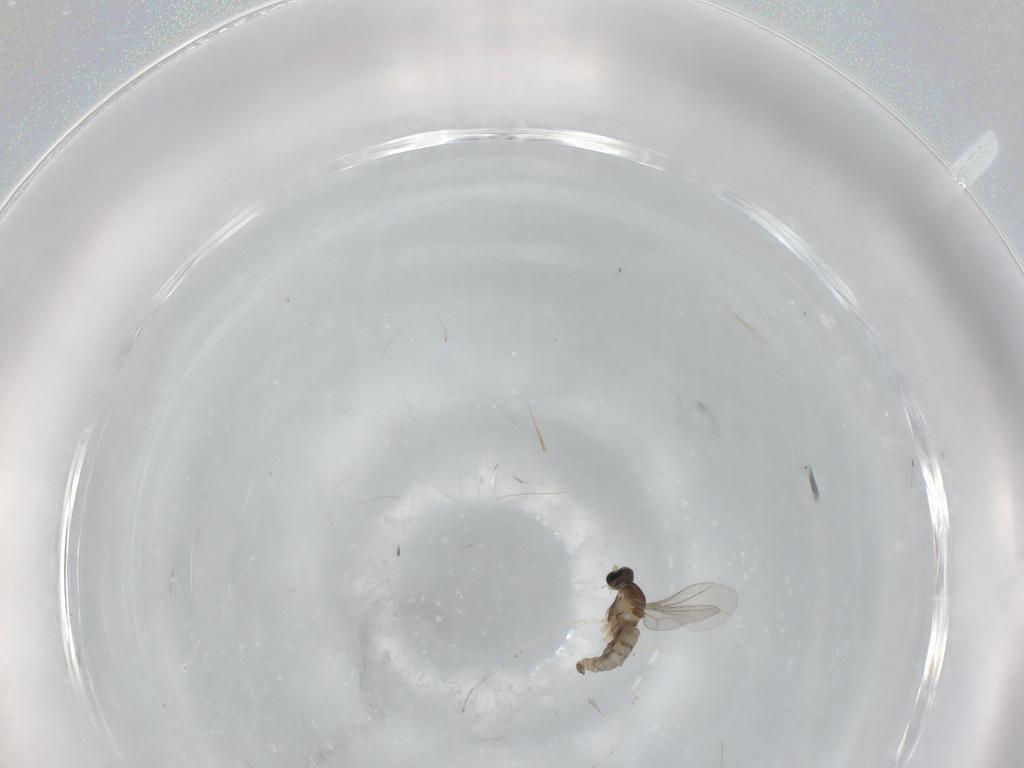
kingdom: Animalia
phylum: Arthropoda
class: Insecta
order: Diptera
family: Cecidomyiidae
